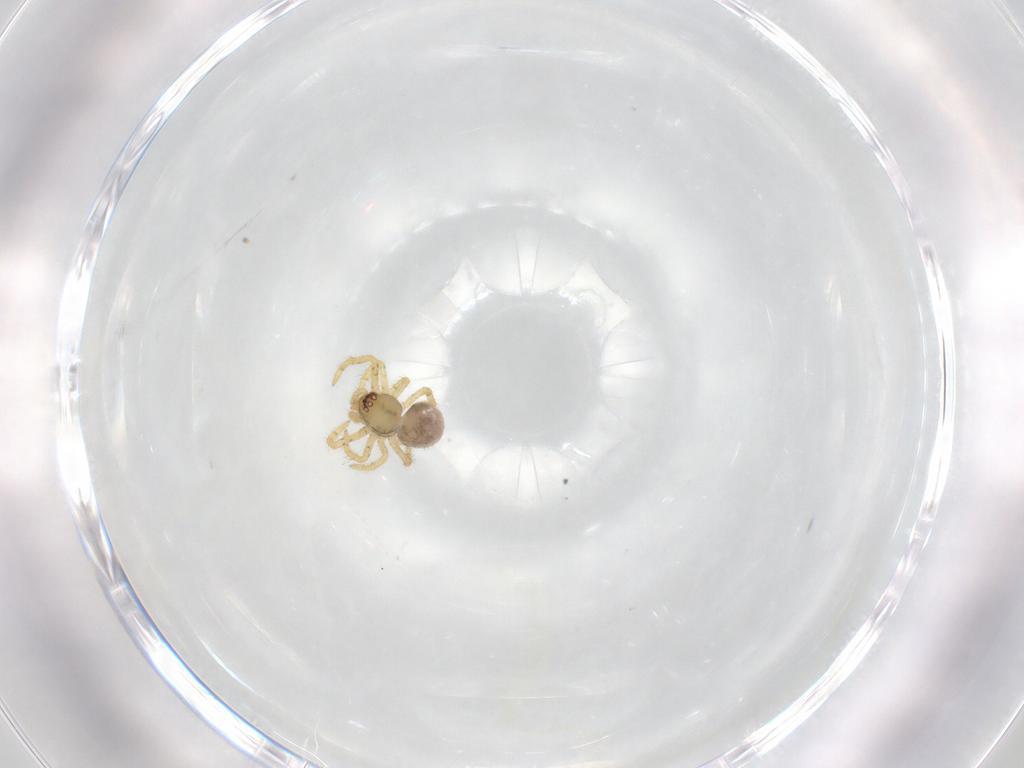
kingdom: Animalia
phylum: Arthropoda
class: Arachnida
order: Araneae
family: Theridiidae
